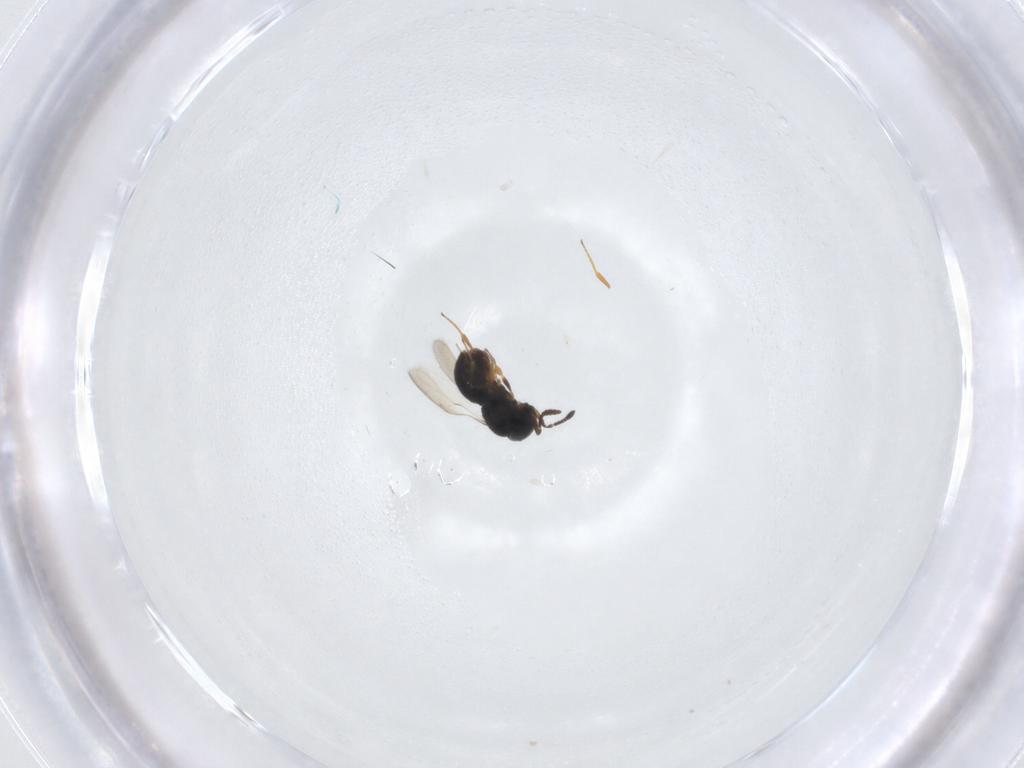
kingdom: Animalia
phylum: Arthropoda
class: Insecta
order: Hymenoptera
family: Scelionidae
